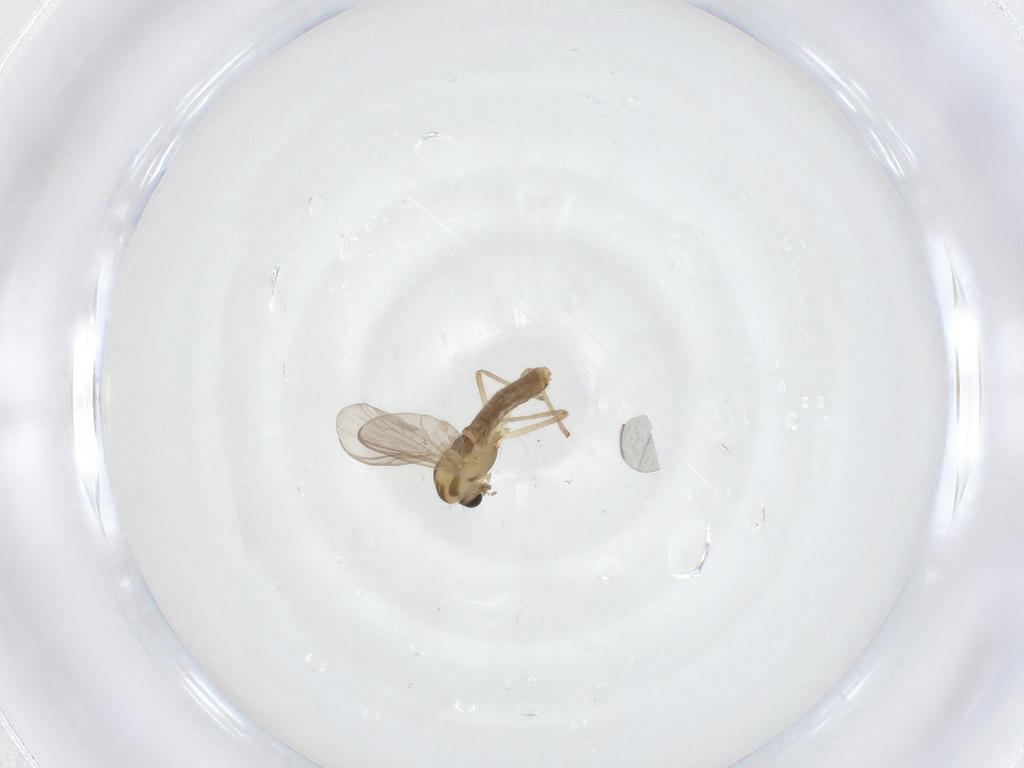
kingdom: Animalia
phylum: Arthropoda
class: Insecta
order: Diptera
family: Chironomidae
